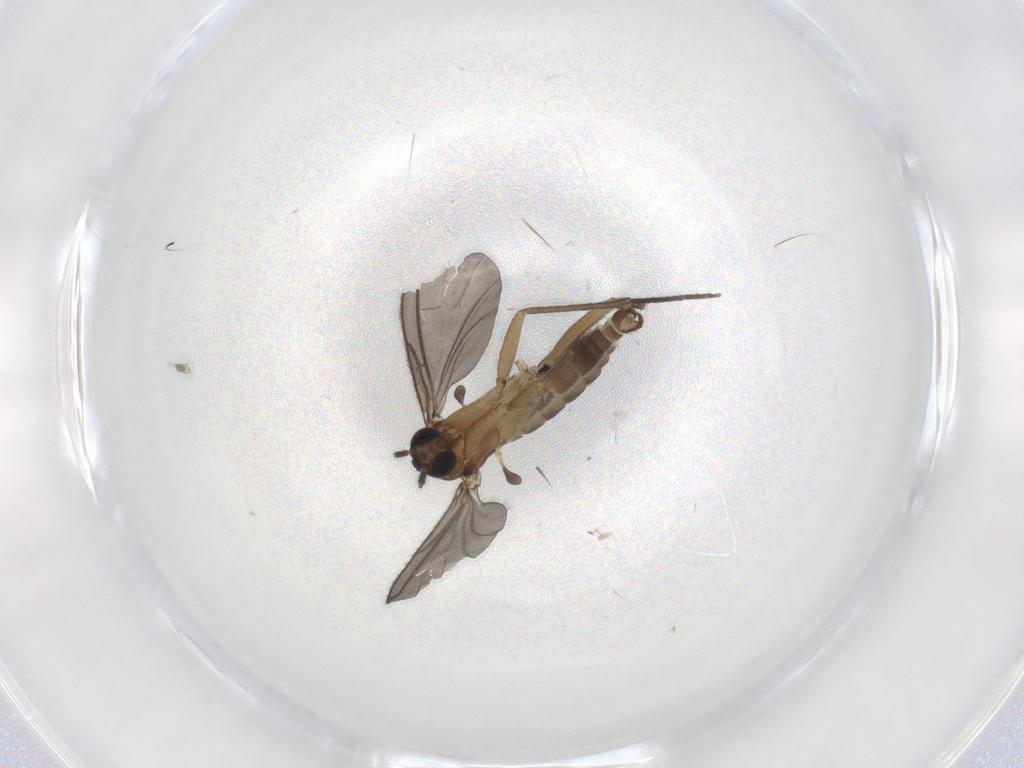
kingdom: Animalia
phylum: Arthropoda
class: Insecta
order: Diptera
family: Sciaridae
